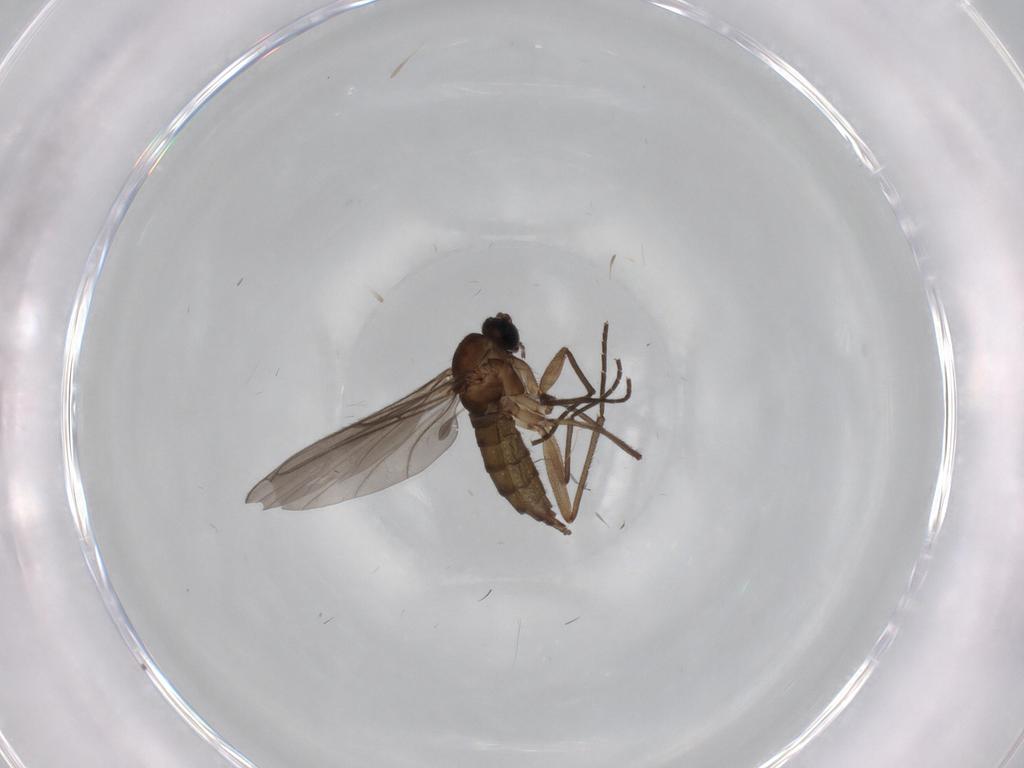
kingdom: Animalia
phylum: Arthropoda
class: Insecta
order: Diptera
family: Sciaridae
